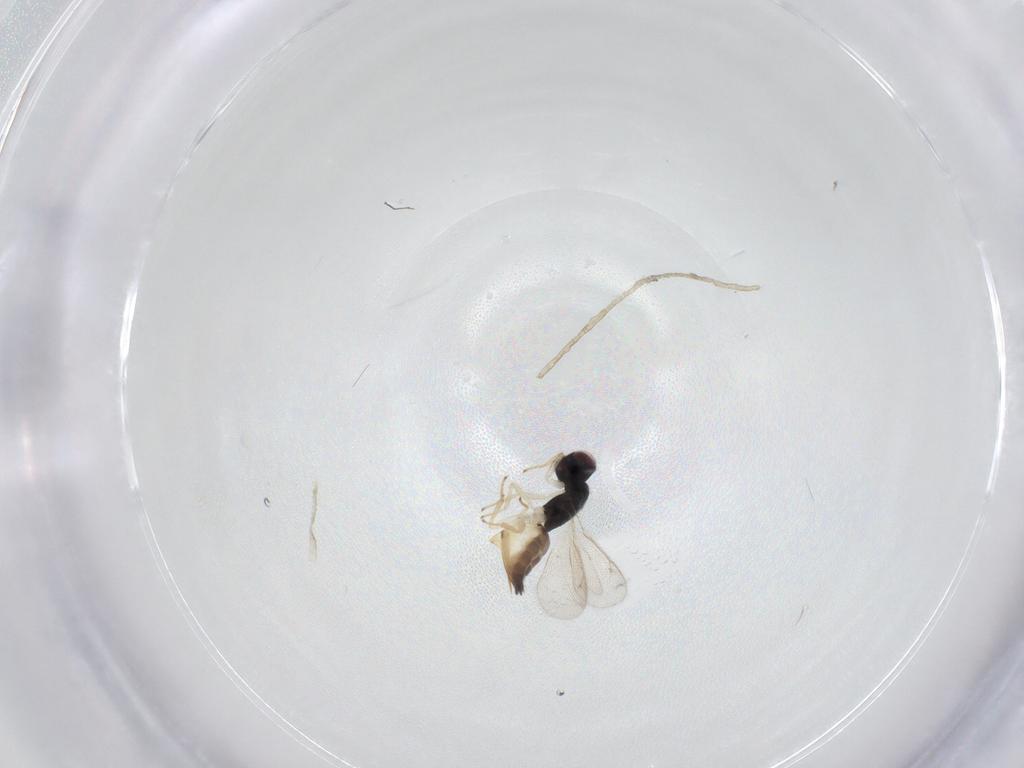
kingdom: Animalia
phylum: Arthropoda
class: Insecta
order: Hymenoptera
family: Eulophidae
